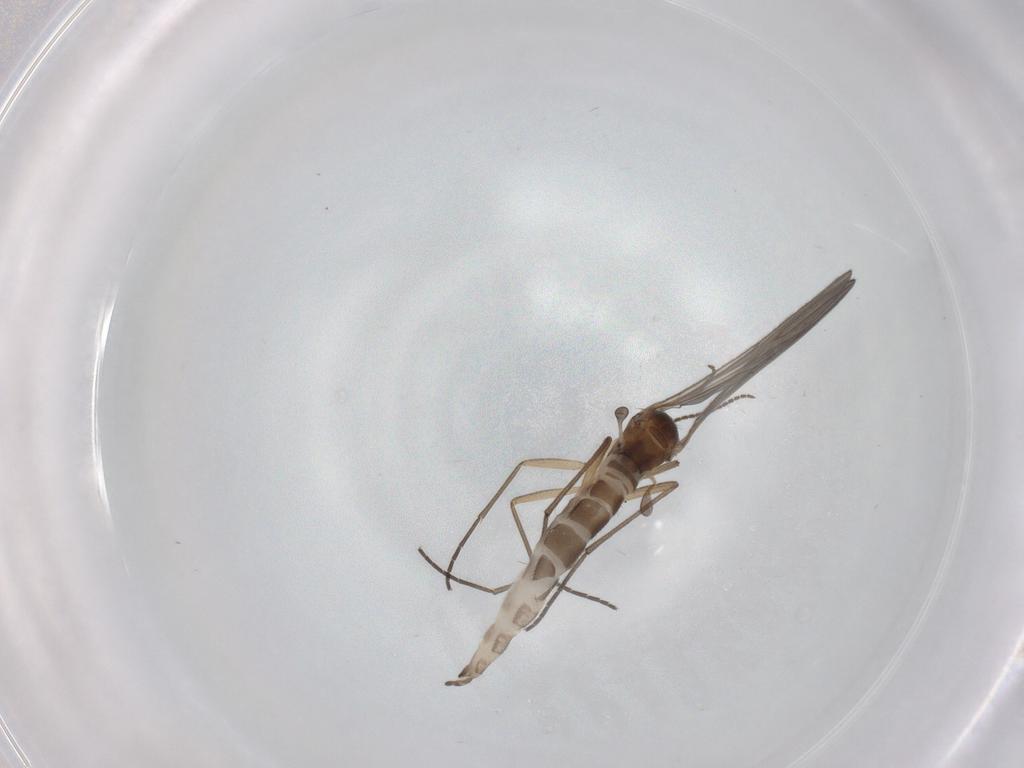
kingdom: Animalia
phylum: Arthropoda
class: Insecta
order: Diptera
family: Sciaridae
